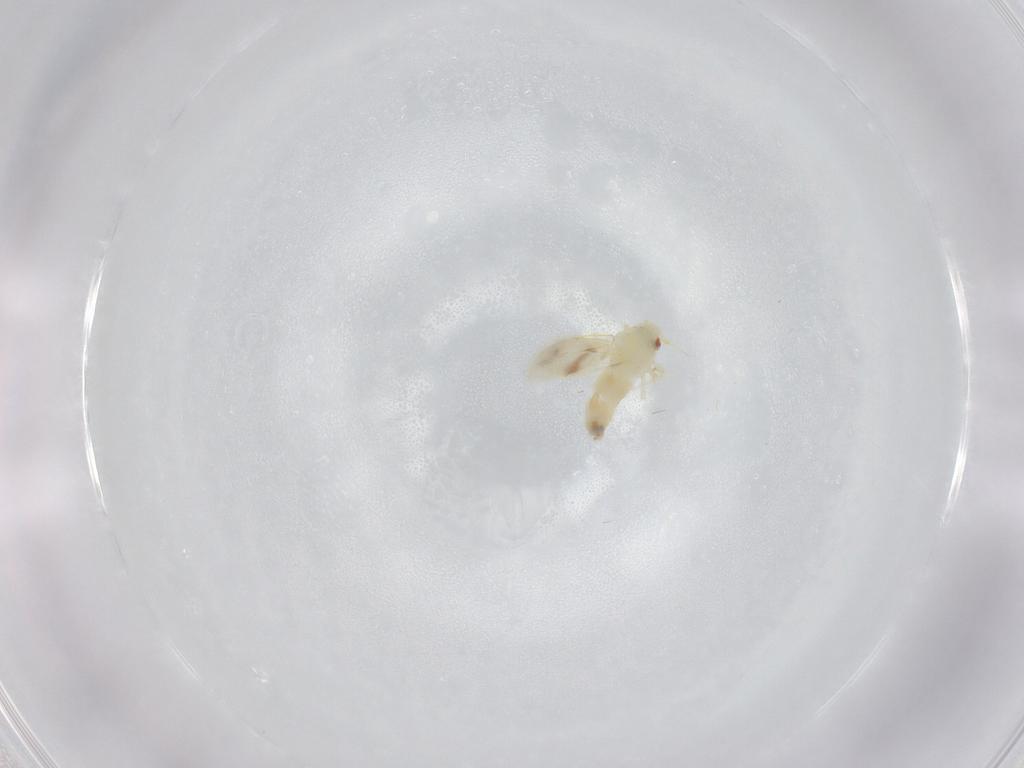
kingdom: Animalia
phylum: Arthropoda
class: Insecta
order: Hemiptera
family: Aleyrodidae
